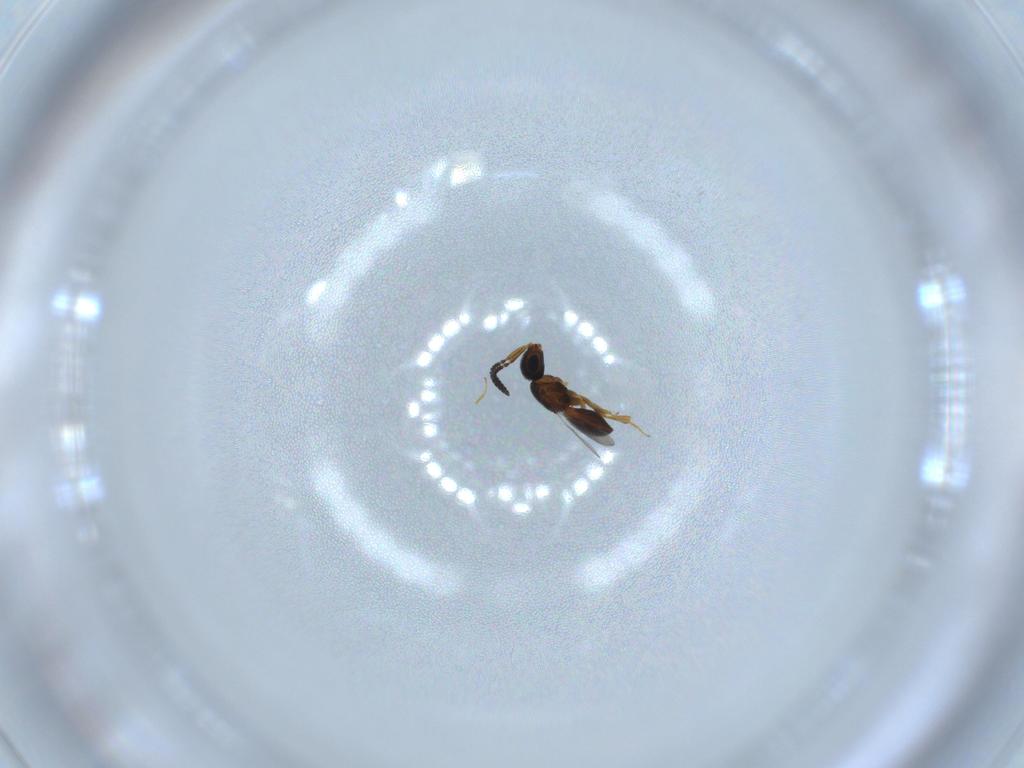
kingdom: Animalia
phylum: Arthropoda
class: Insecta
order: Hymenoptera
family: Scelionidae
